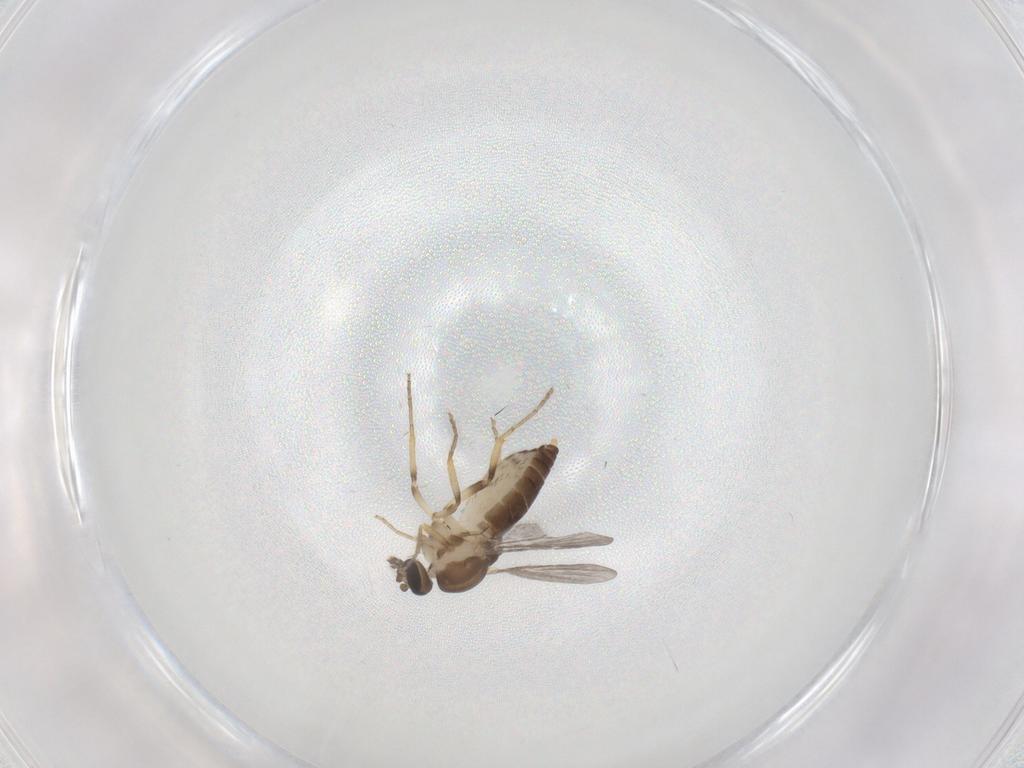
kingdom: Animalia
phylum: Arthropoda
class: Insecta
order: Diptera
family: Ceratopogonidae
